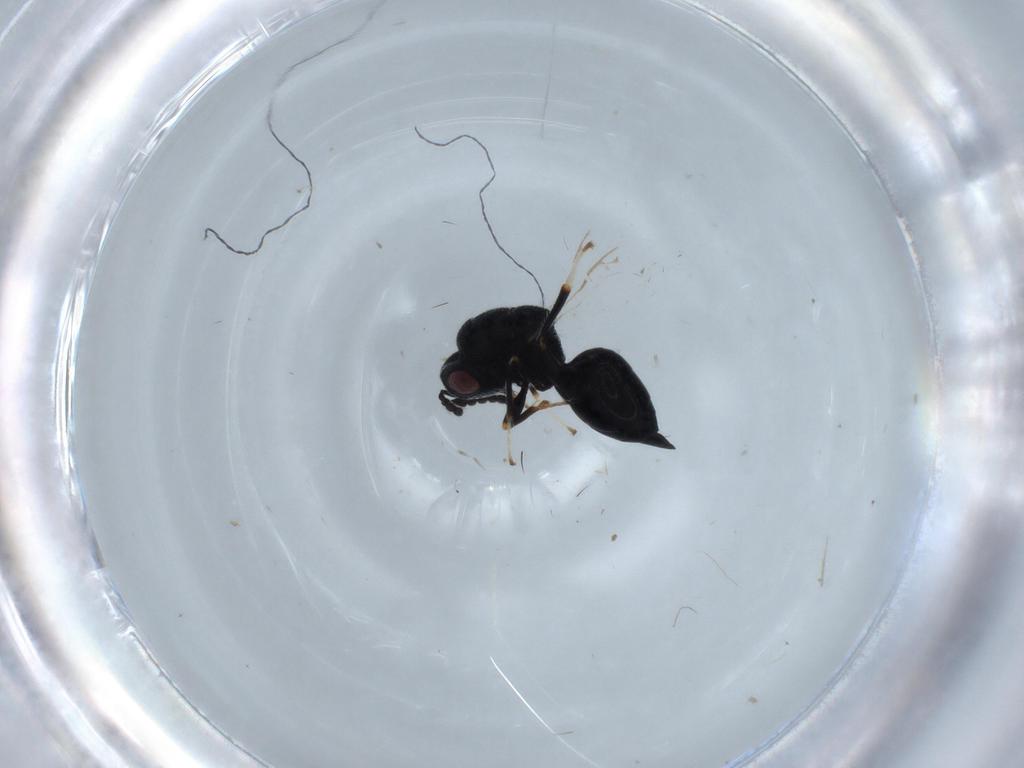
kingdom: Animalia
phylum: Arthropoda
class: Insecta
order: Hymenoptera
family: Eurytomidae
